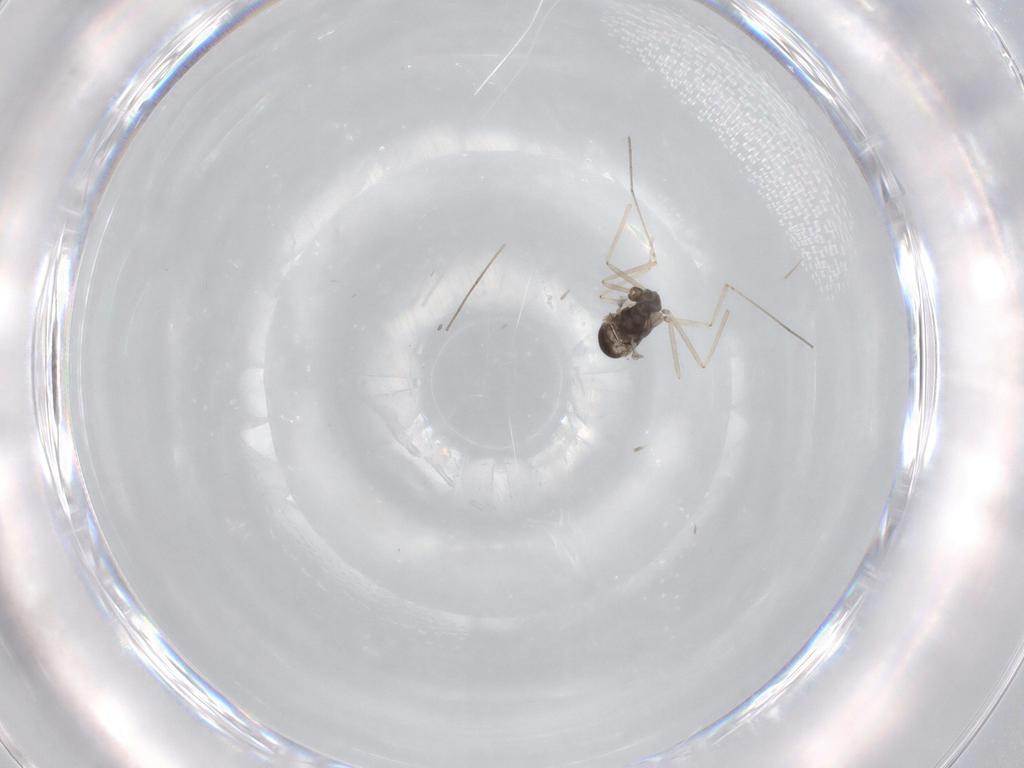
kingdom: Animalia
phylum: Arthropoda
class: Insecta
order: Diptera
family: Cecidomyiidae
